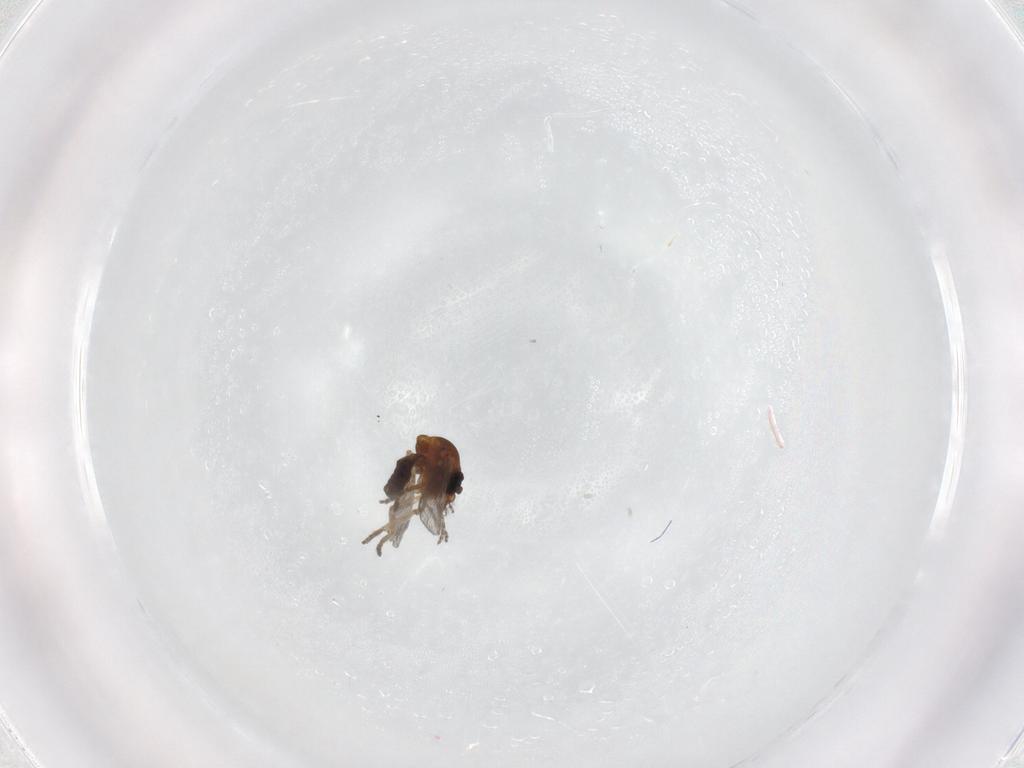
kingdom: Animalia
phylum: Arthropoda
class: Insecta
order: Diptera
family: Ceratopogonidae
